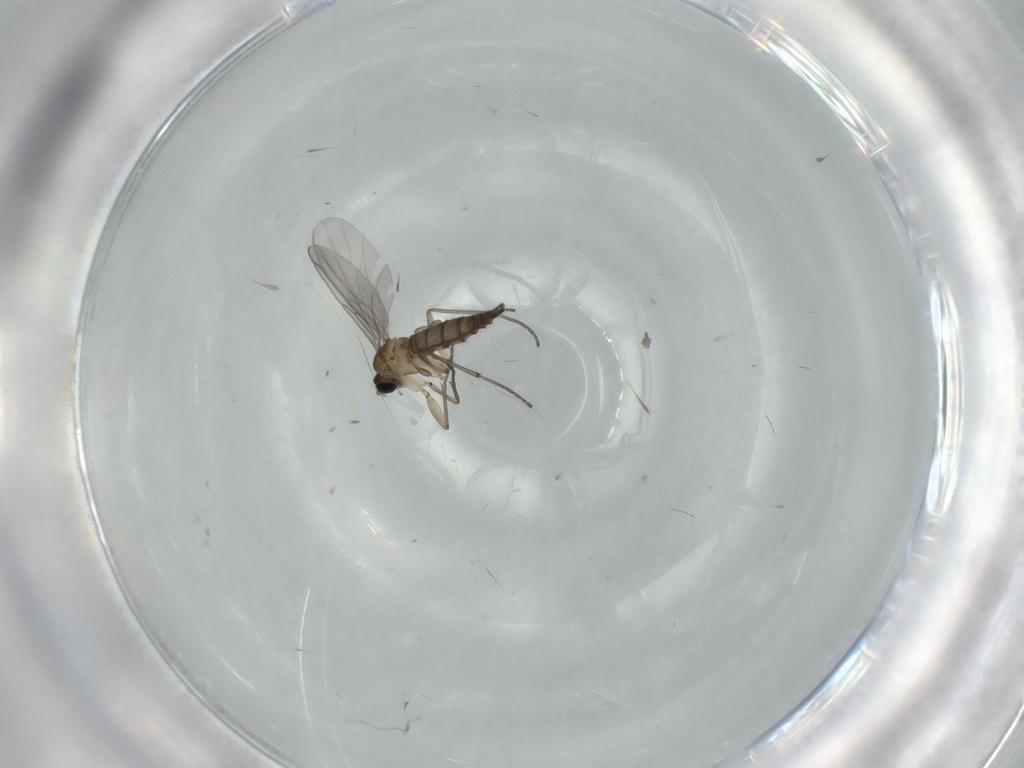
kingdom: Animalia
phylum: Arthropoda
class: Insecta
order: Diptera
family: Sciaridae
